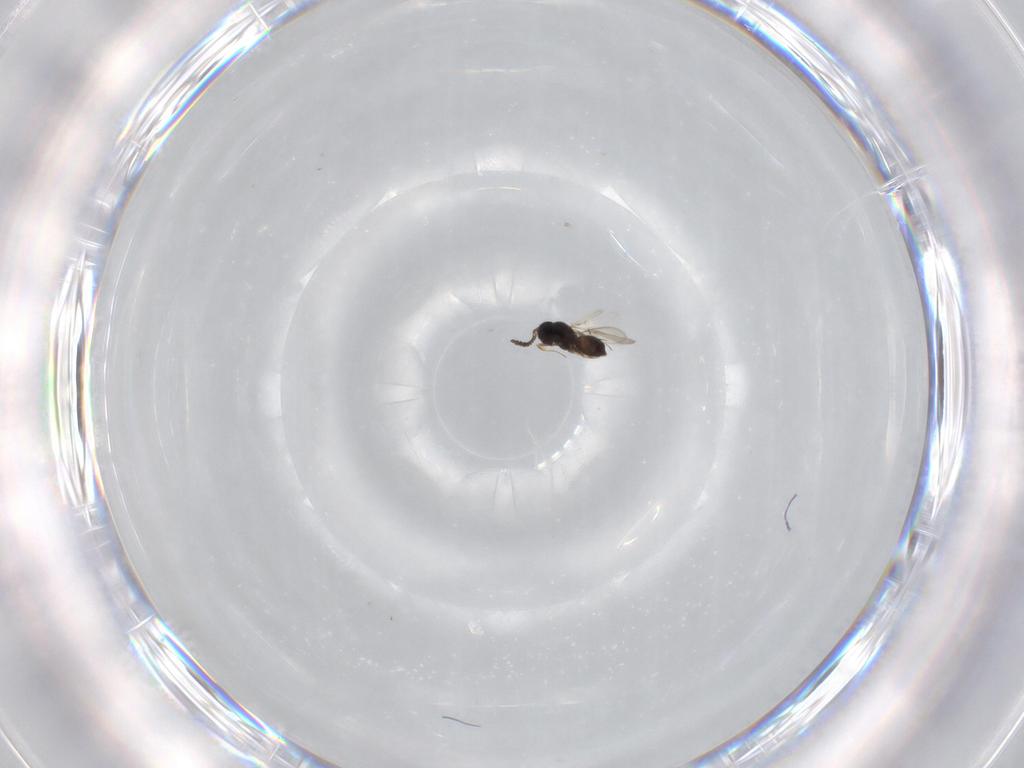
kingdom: Animalia
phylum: Arthropoda
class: Insecta
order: Hymenoptera
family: Scelionidae
